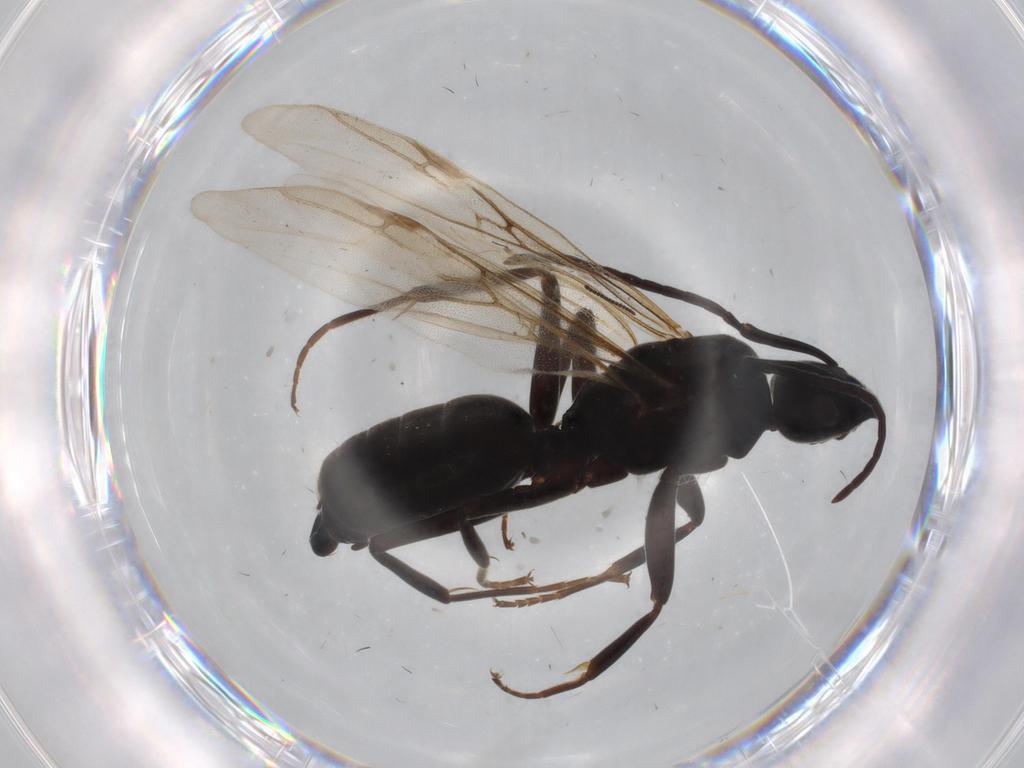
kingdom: Animalia
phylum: Arthropoda
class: Insecta
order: Hymenoptera
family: Formicidae
